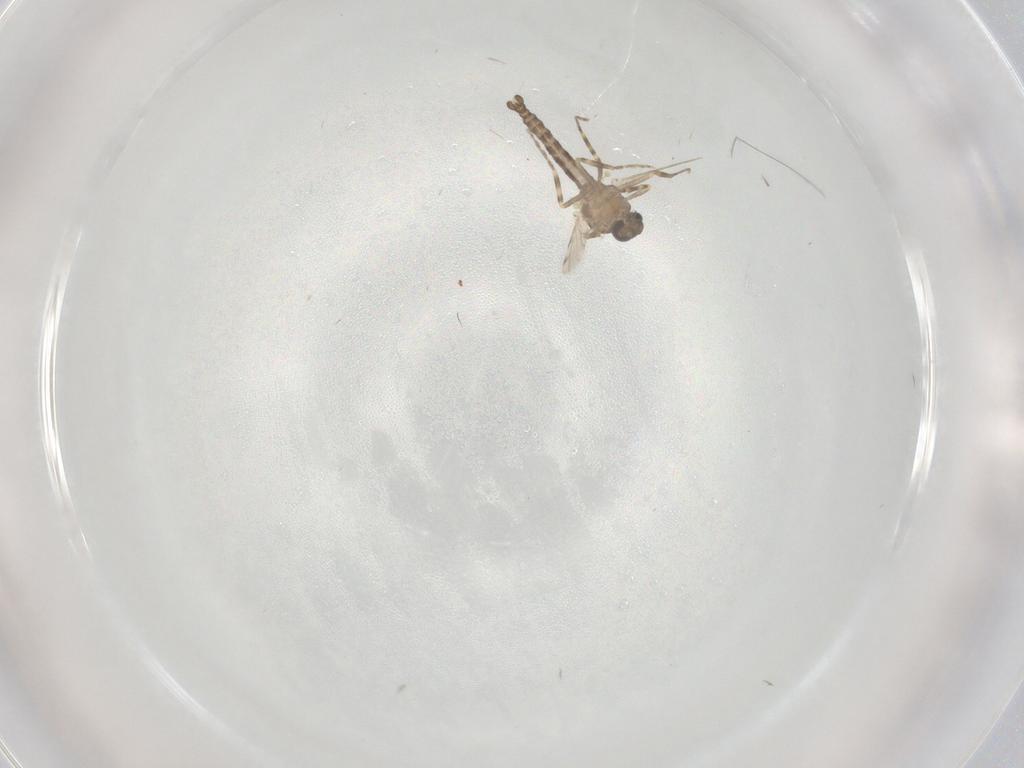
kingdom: Animalia
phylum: Arthropoda
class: Insecta
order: Diptera
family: Ceratopogonidae
